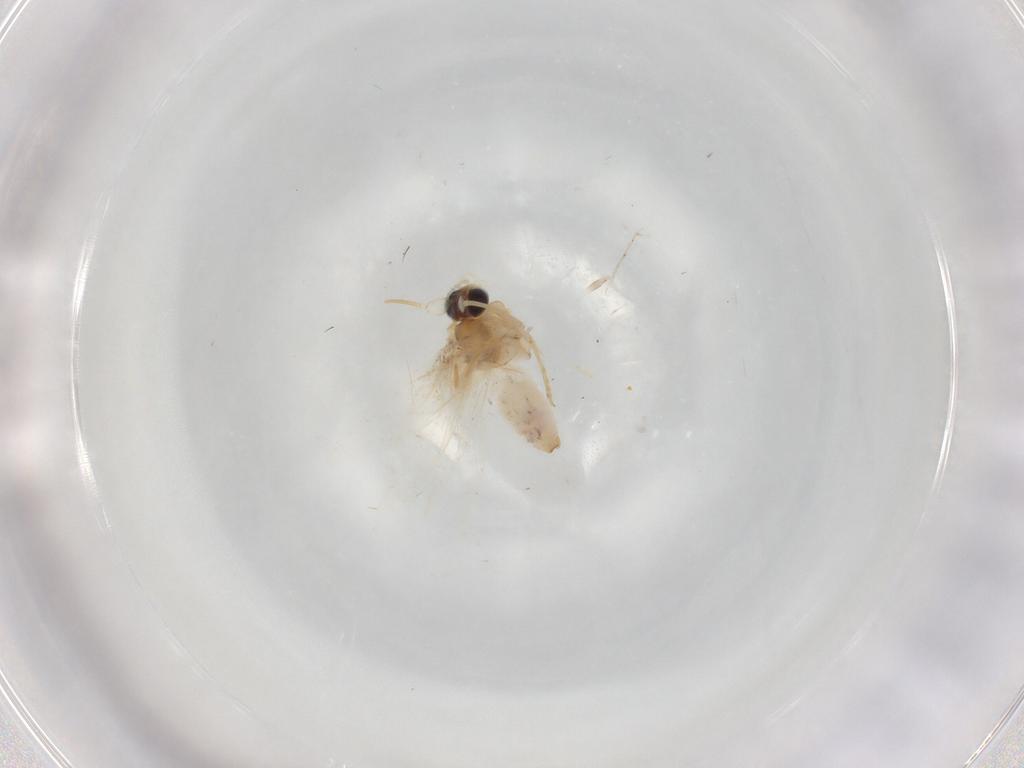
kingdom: Animalia
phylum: Arthropoda
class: Insecta
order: Lepidoptera
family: Nepticulidae
